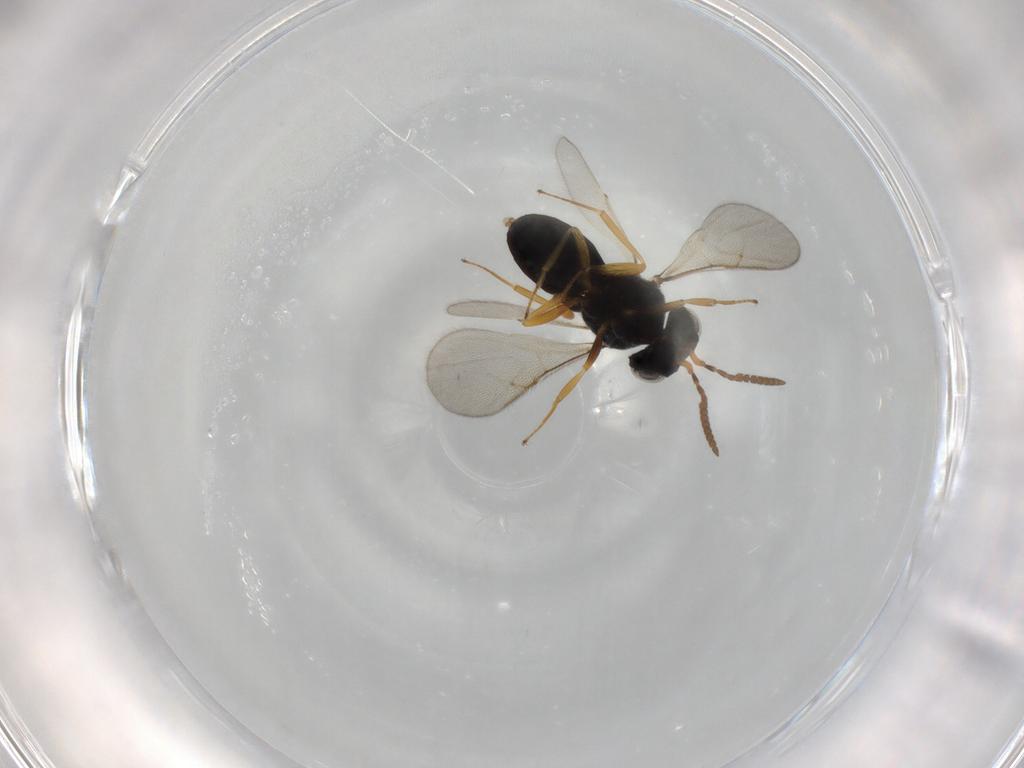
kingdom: Animalia
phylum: Arthropoda
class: Insecta
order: Hymenoptera
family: Scelionidae
